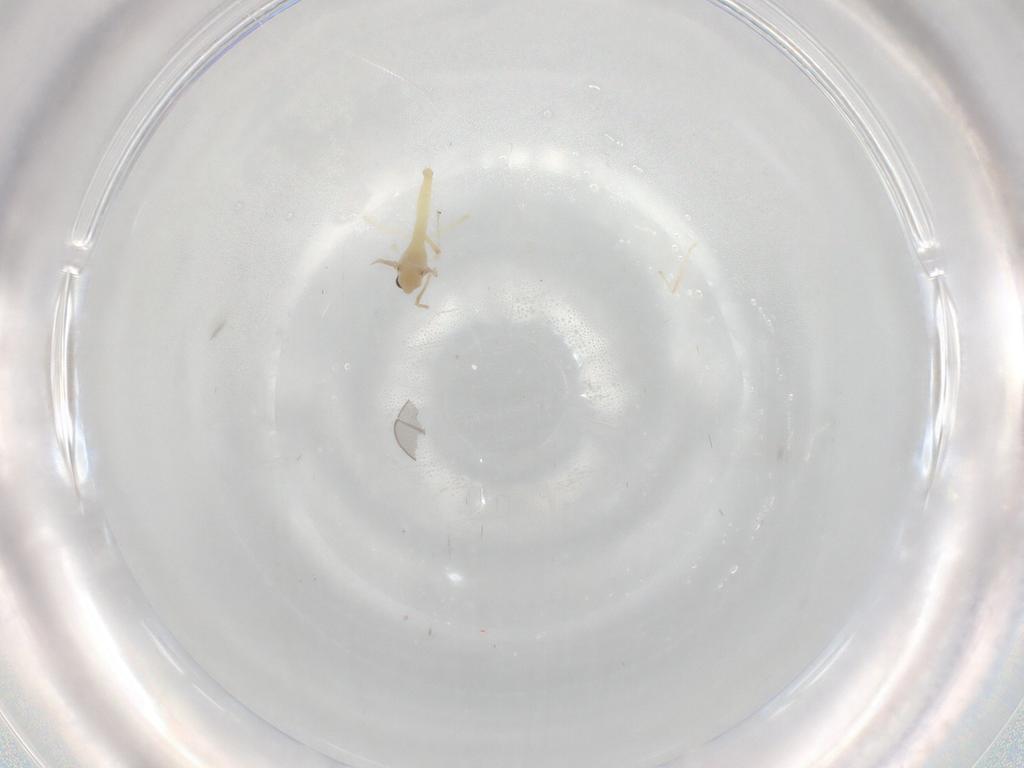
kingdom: Animalia
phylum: Arthropoda
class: Insecta
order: Diptera
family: Chironomidae
